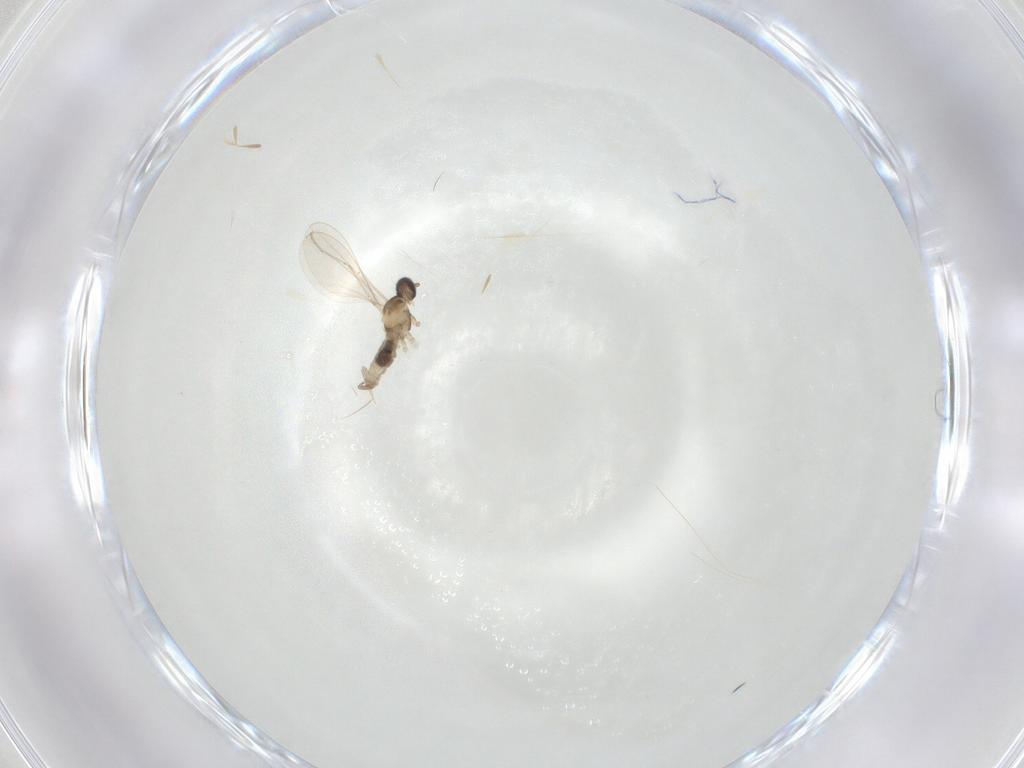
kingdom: Animalia
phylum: Arthropoda
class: Insecta
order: Diptera
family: Cecidomyiidae
